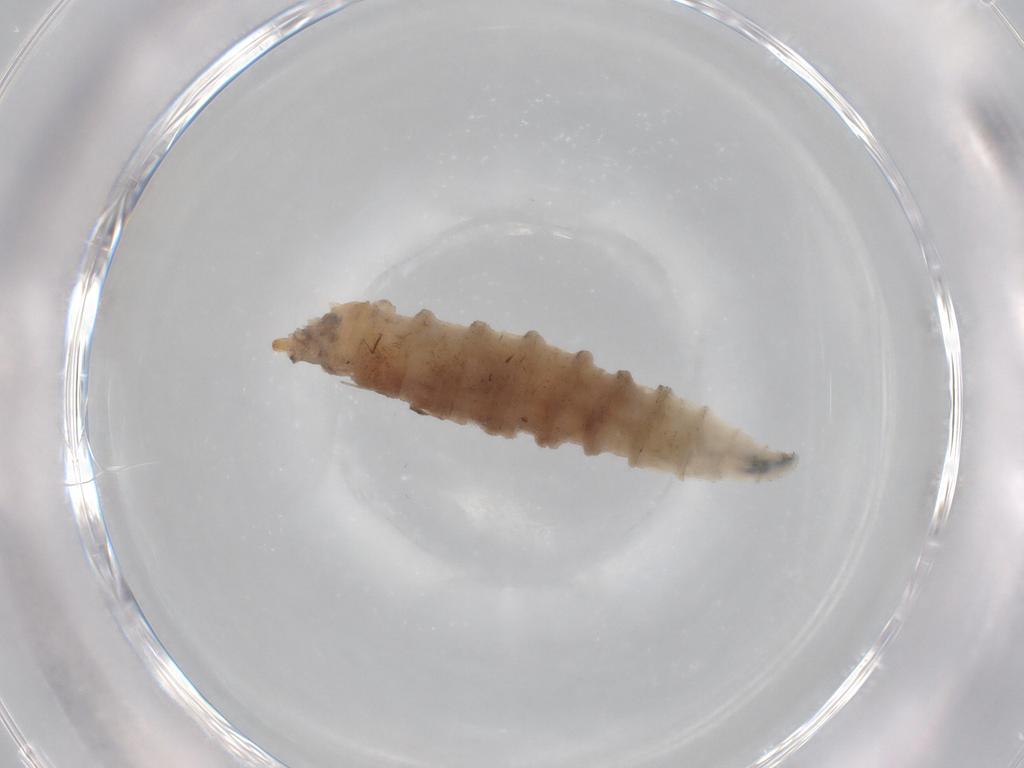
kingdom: Animalia
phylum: Arthropoda
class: Insecta
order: Diptera
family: Drosophilidae
